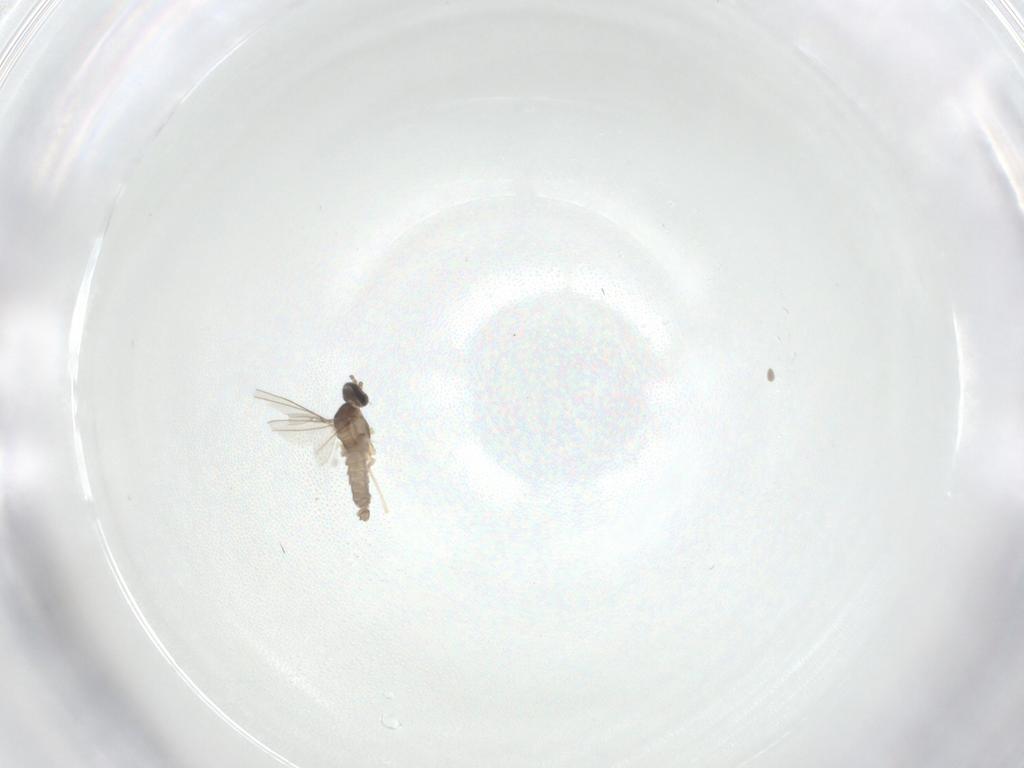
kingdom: Animalia
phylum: Arthropoda
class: Insecta
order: Diptera
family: Cecidomyiidae
